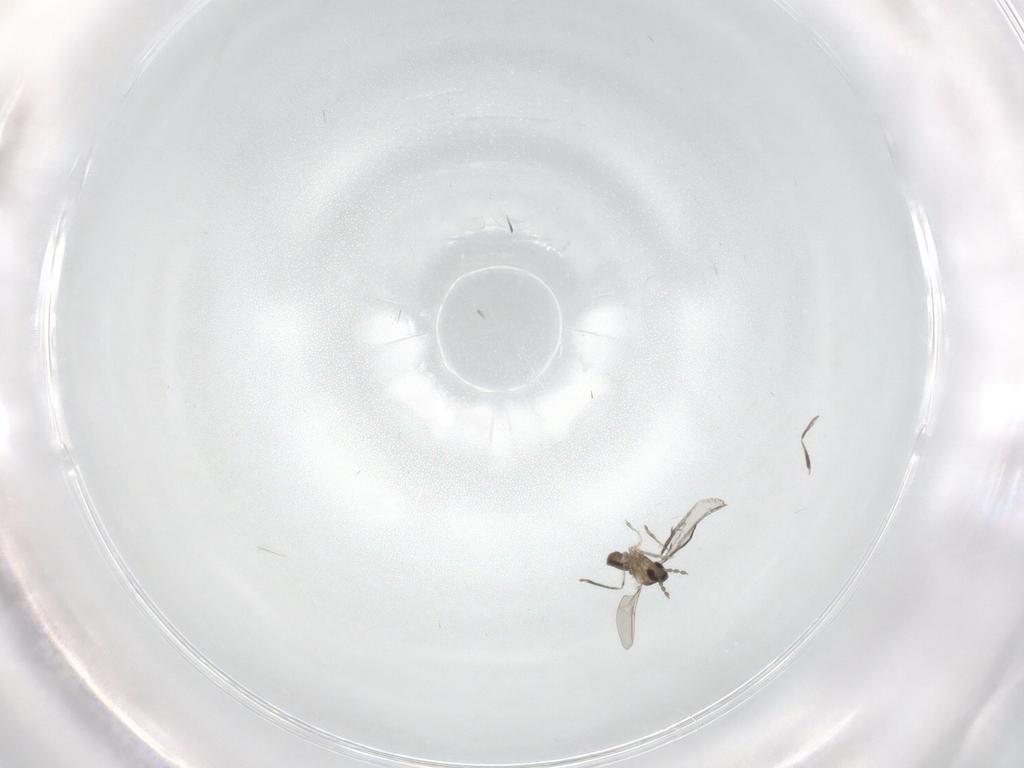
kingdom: Animalia
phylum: Arthropoda
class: Insecta
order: Diptera
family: Cecidomyiidae
